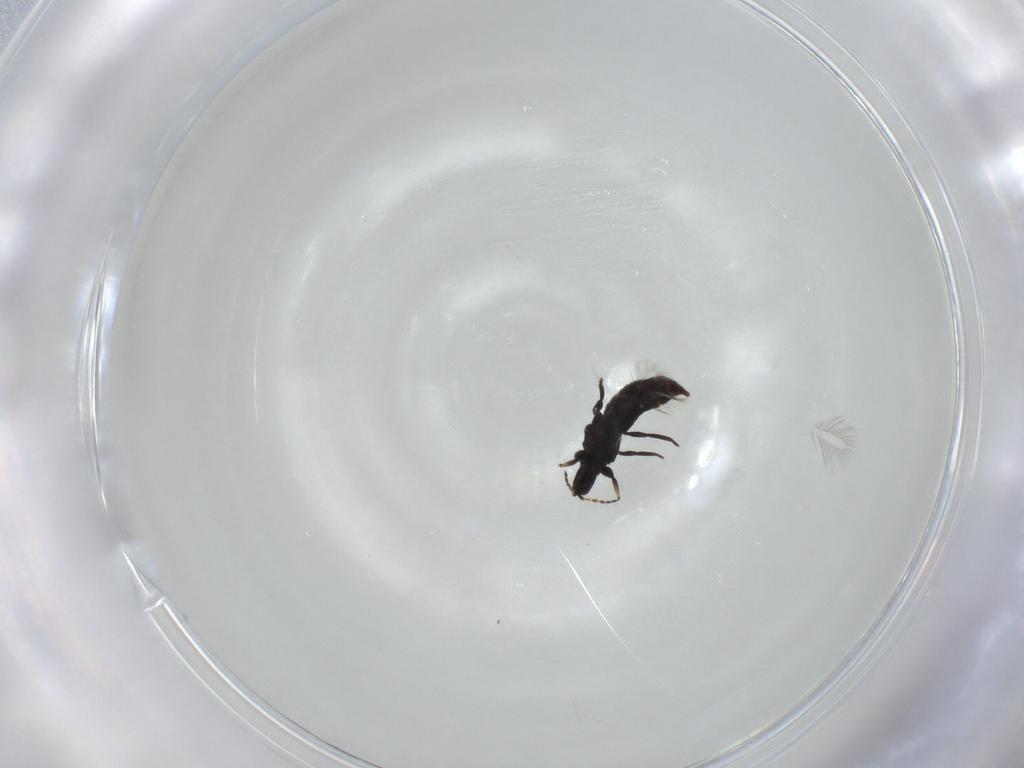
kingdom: Animalia
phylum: Arthropoda
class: Insecta
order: Thysanoptera
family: Phlaeothripidae
